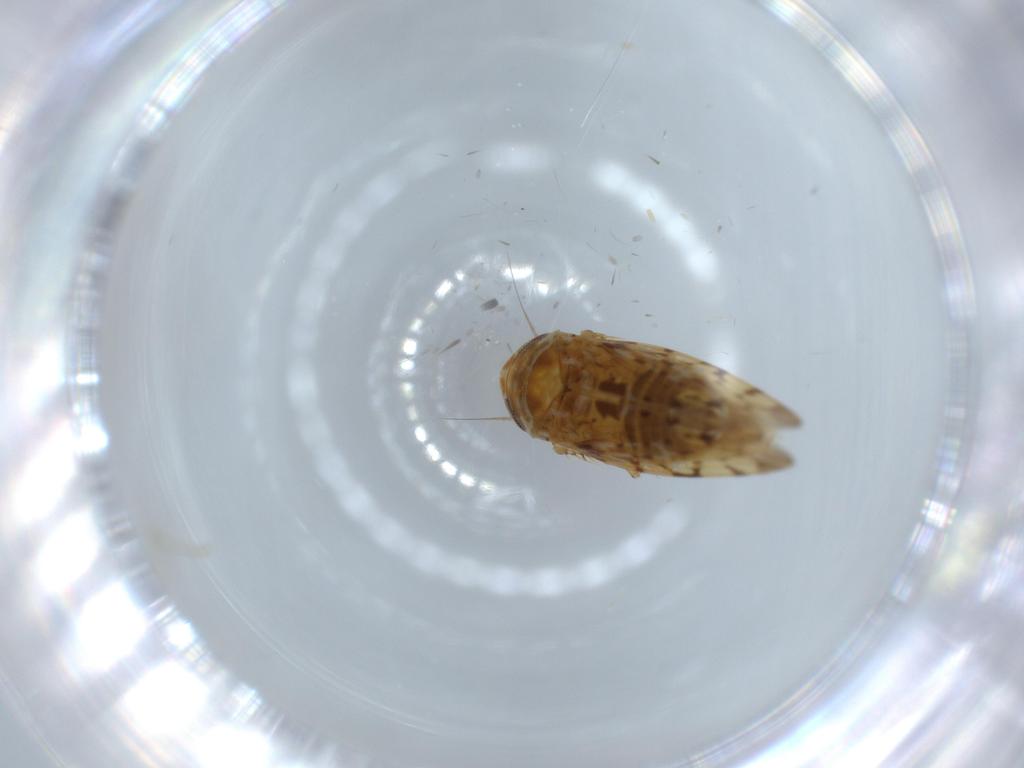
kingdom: Animalia
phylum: Arthropoda
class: Insecta
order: Hemiptera
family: Cicadellidae
